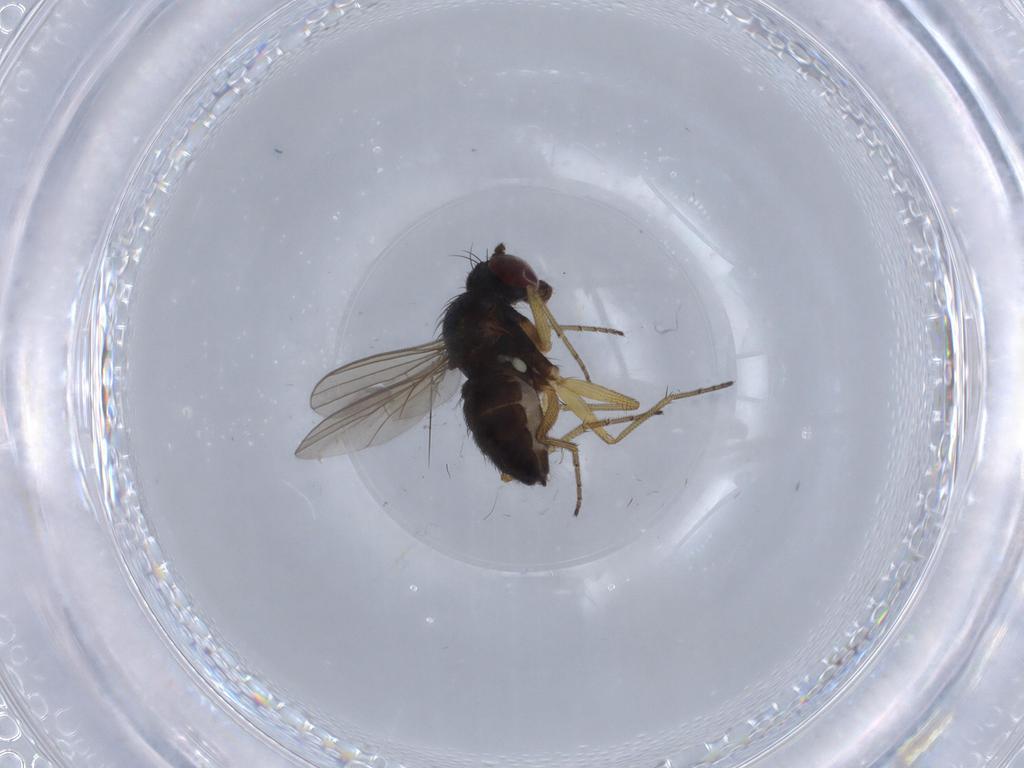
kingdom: Animalia
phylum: Arthropoda
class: Insecta
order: Diptera
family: Dolichopodidae
